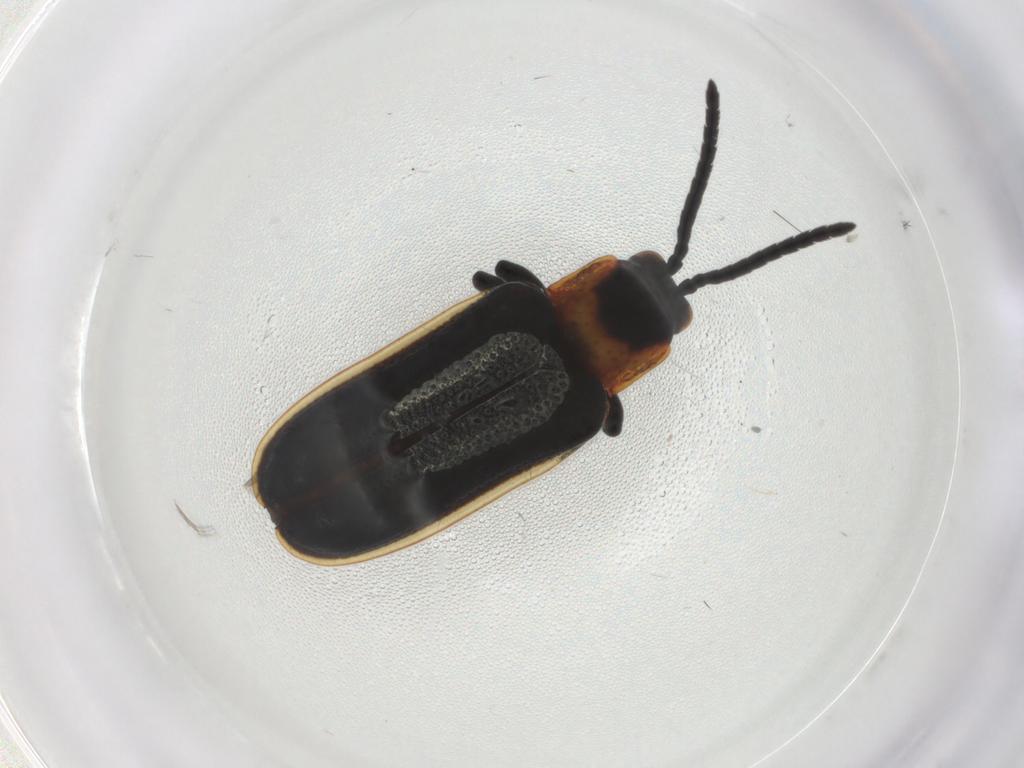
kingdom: Animalia
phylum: Arthropoda
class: Insecta
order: Coleoptera
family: Chrysomelidae
